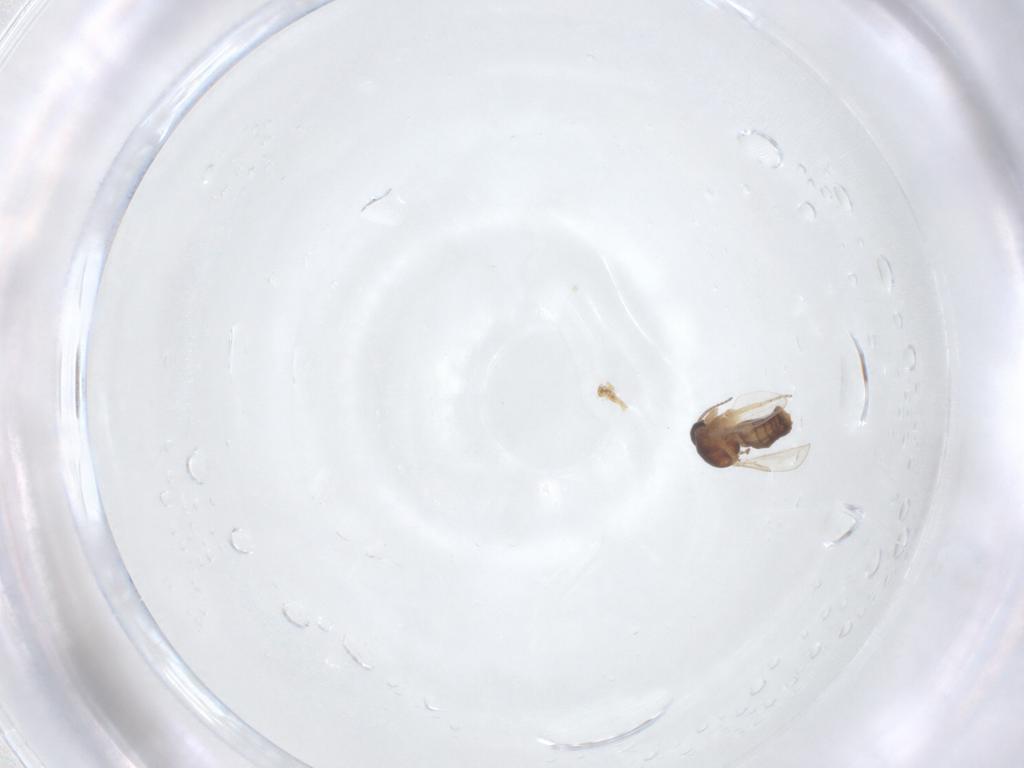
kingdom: Animalia
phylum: Arthropoda
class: Insecta
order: Diptera
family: Ceratopogonidae
